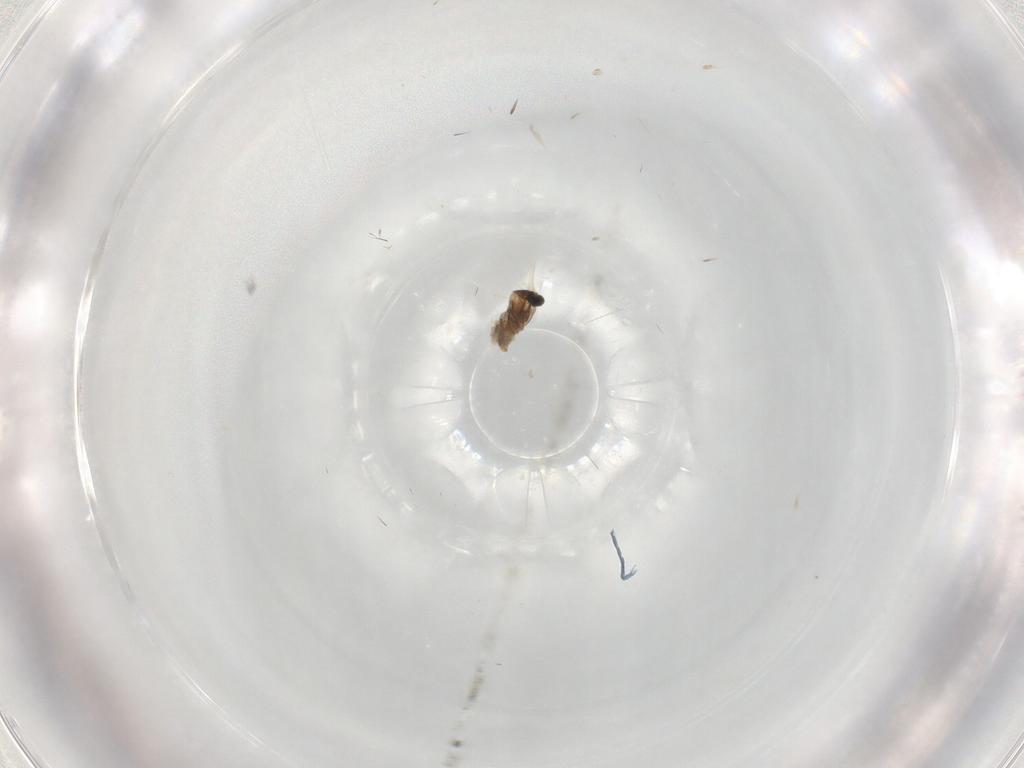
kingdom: Animalia
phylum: Arthropoda
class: Insecta
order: Diptera
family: Cecidomyiidae
